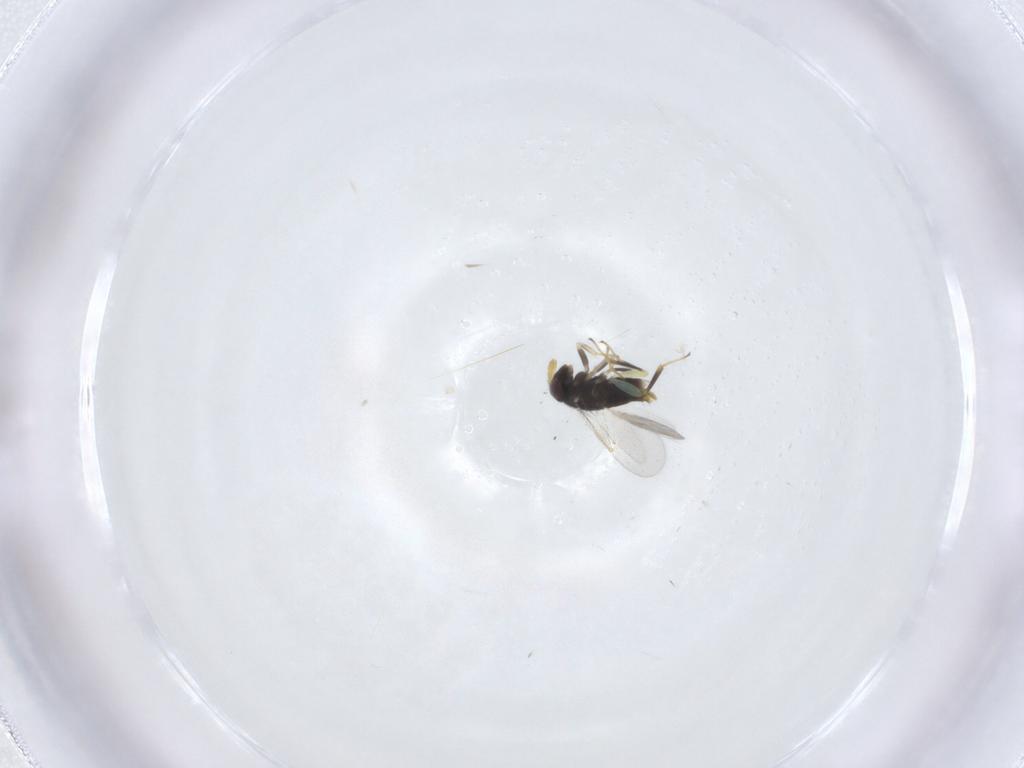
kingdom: Animalia
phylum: Arthropoda
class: Insecta
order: Hymenoptera
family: Aphelinidae
